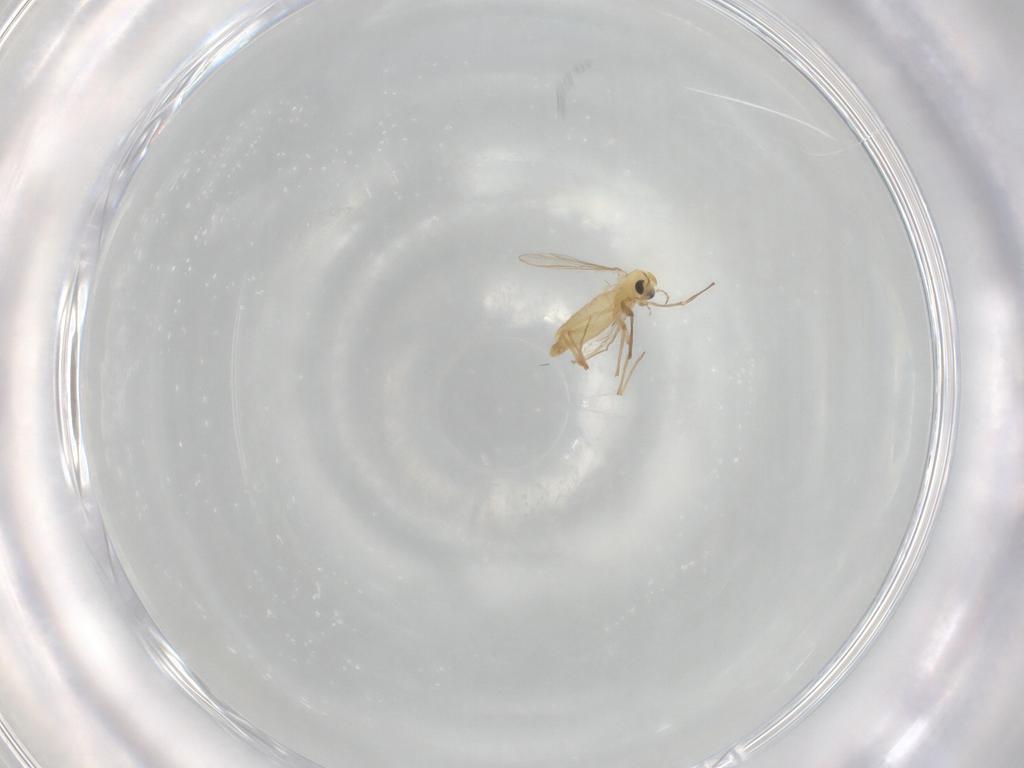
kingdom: Animalia
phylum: Arthropoda
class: Insecta
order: Diptera
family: Chironomidae
